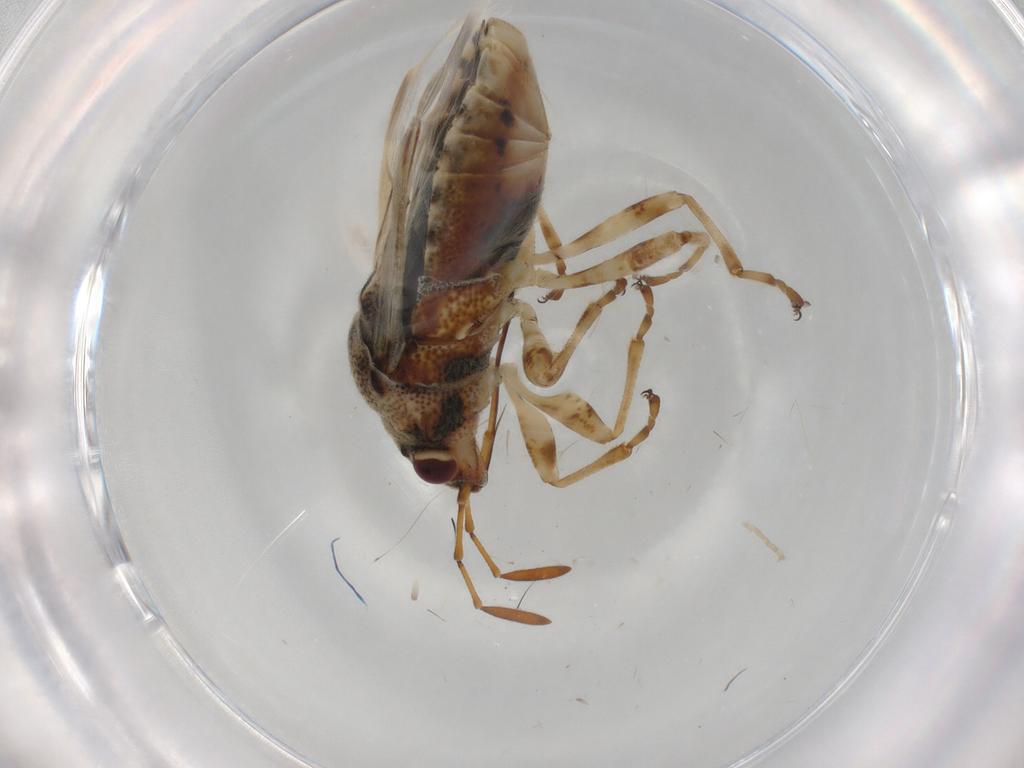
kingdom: Animalia
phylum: Arthropoda
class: Insecta
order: Hemiptera
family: Lygaeidae
